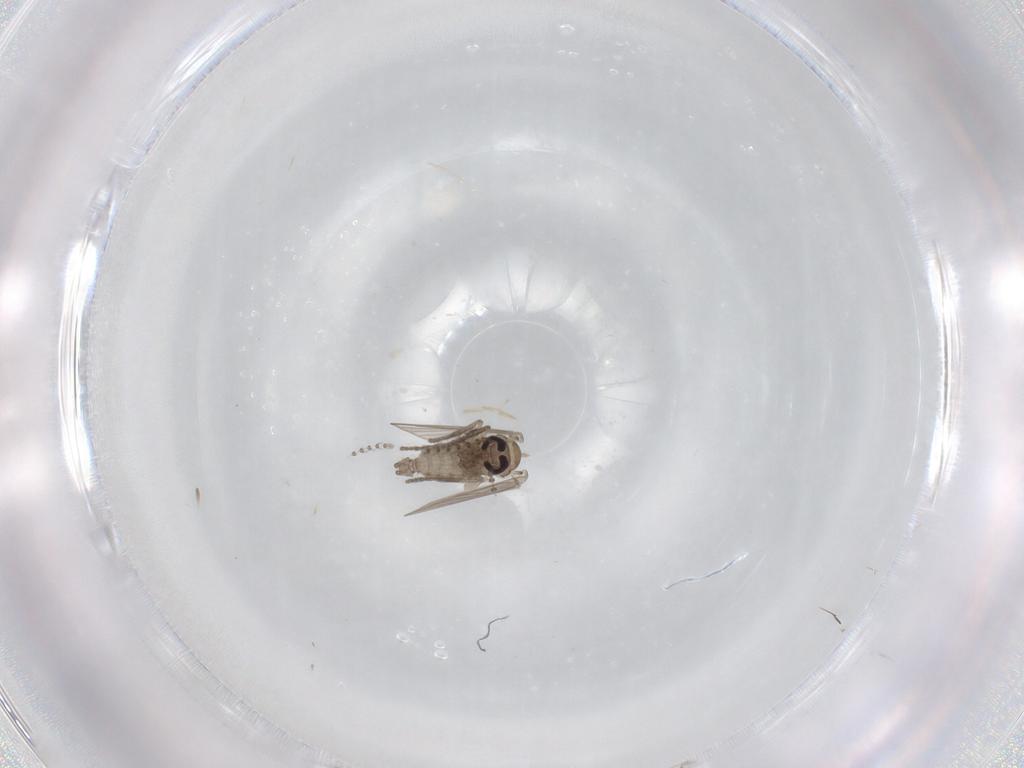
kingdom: Animalia
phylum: Arthropoda
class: Insecta
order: Diptera
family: Psychodidae
